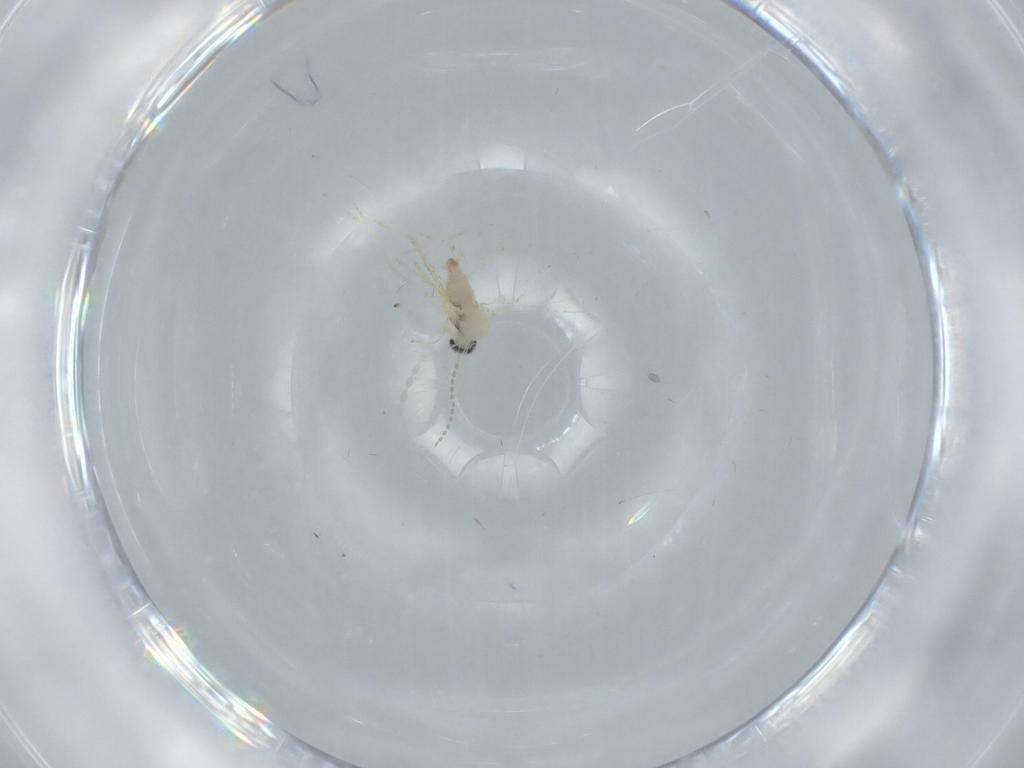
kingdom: Animalia
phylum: Arthropoda
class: Insecta
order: Diptera
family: Cecidomyiidae
